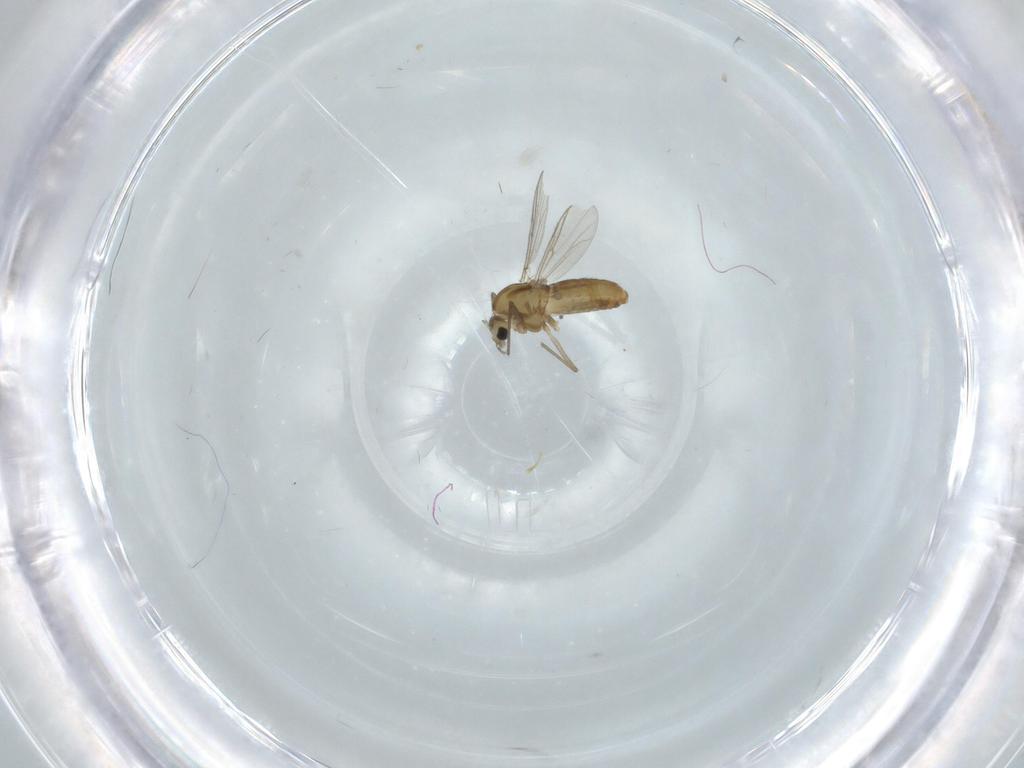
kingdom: Animalia
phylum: Arthropoda
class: Insecta
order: Diptera
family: Chironomidae
